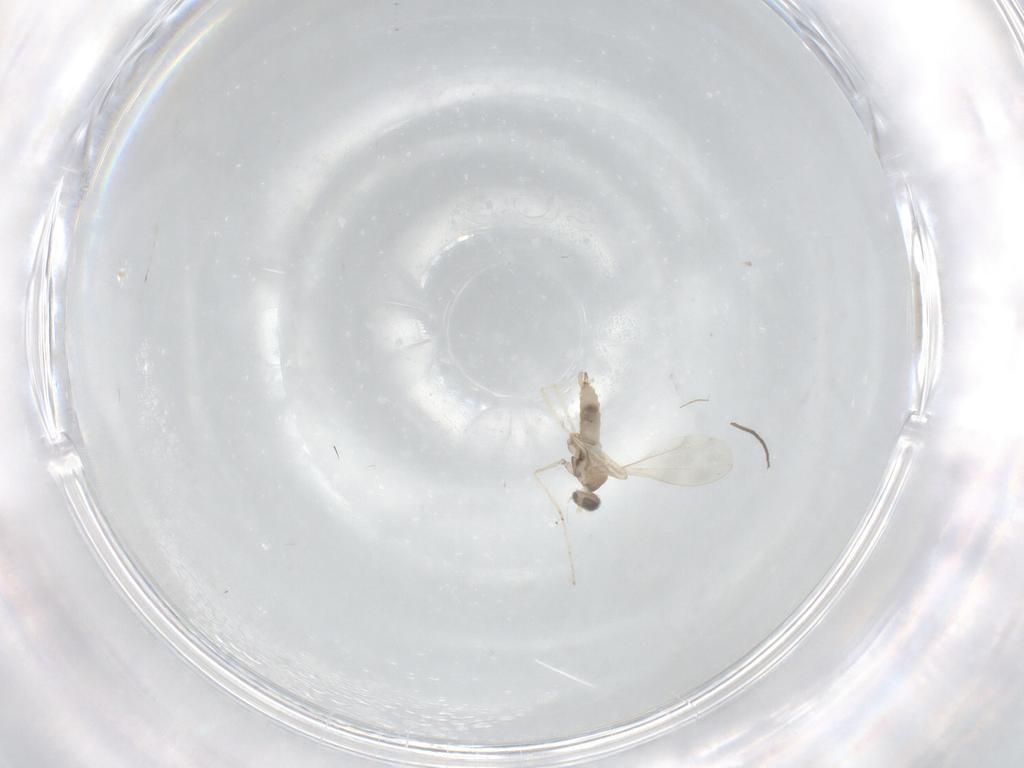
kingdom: Animalia
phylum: Arthropoda
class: Insecta
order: Diptera
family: Cecidomyiidae
